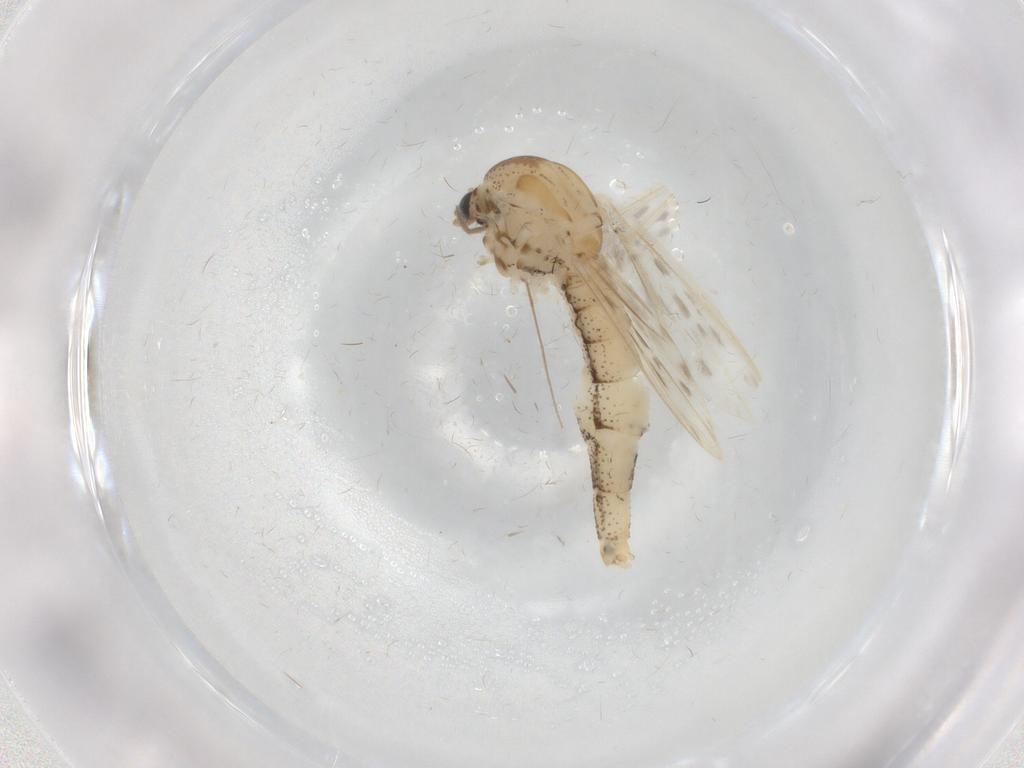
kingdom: Animalia
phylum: Arthropoda
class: Insecta
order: Diptera
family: Chaoboridae
